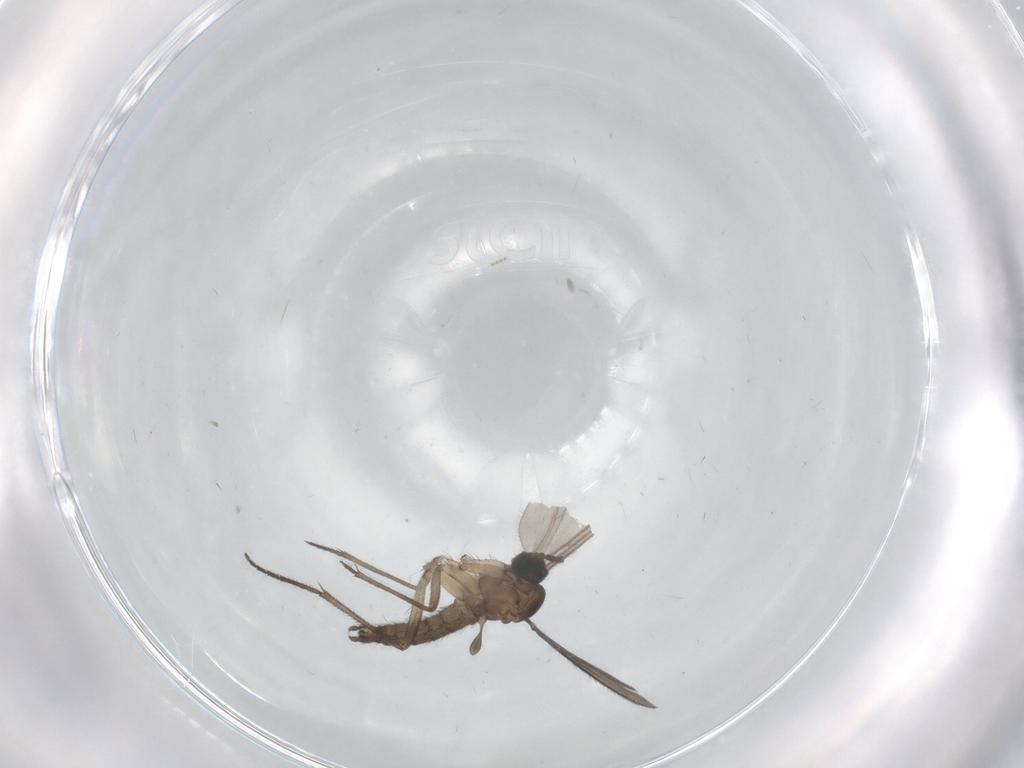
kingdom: Animalia
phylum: Arthropoda
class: Insecta
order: Diptera
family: Sciaridae
